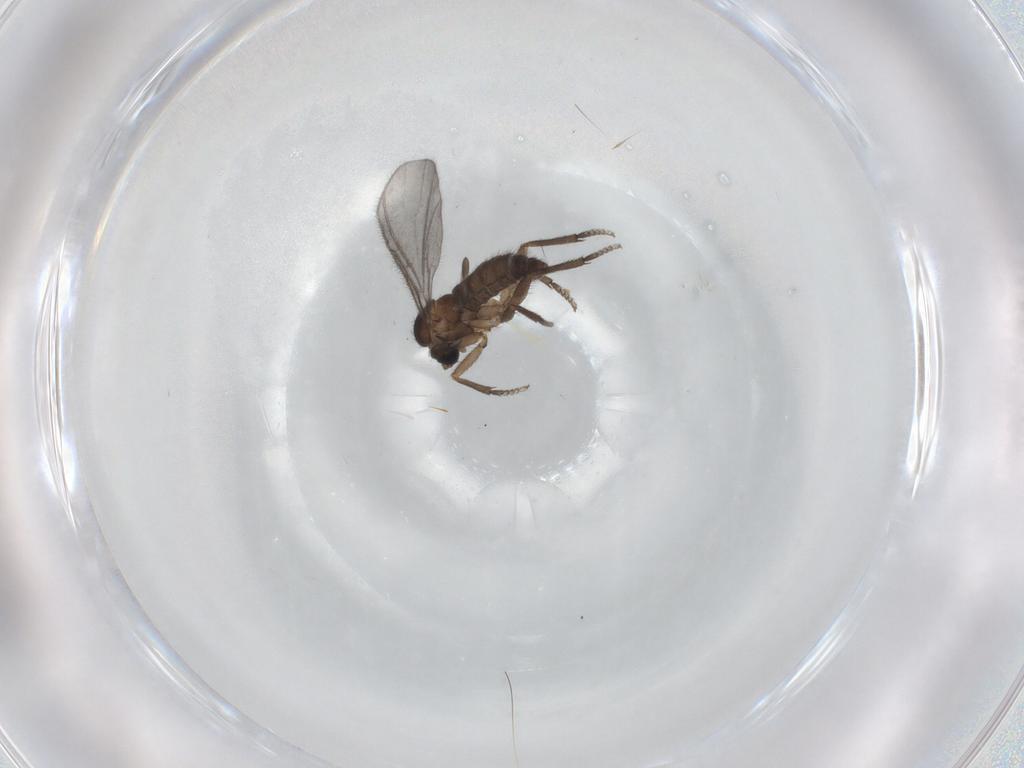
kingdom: Animalia
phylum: Arthropoda
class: Insecta
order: Diptera
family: Sciaridae
